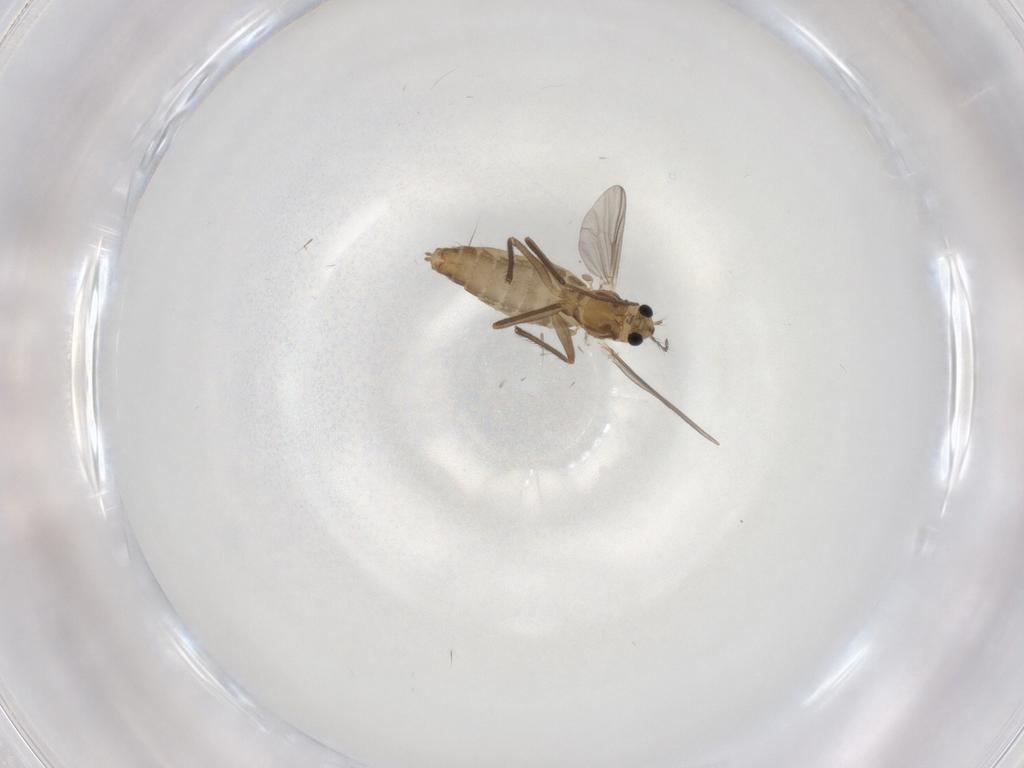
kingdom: Animalia
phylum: Arthropoda
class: Insecta
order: Diptera
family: Chironomidae
